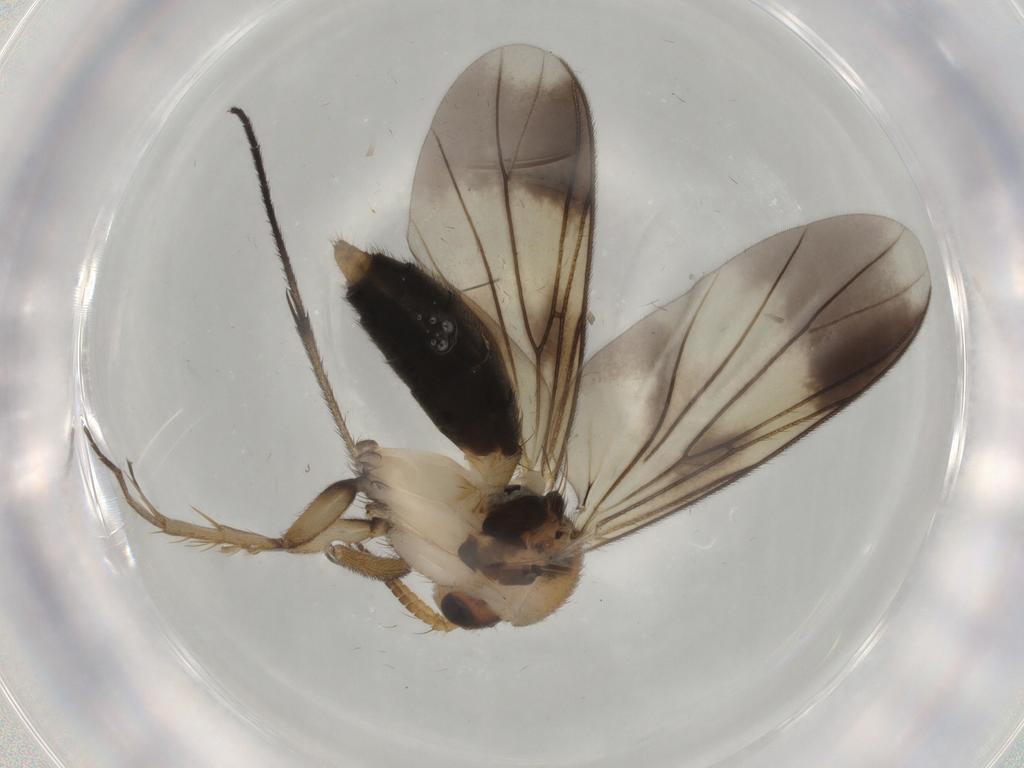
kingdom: Animalia
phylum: Arthropoda
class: Insecta
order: Diptera
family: Mycetophilidae
